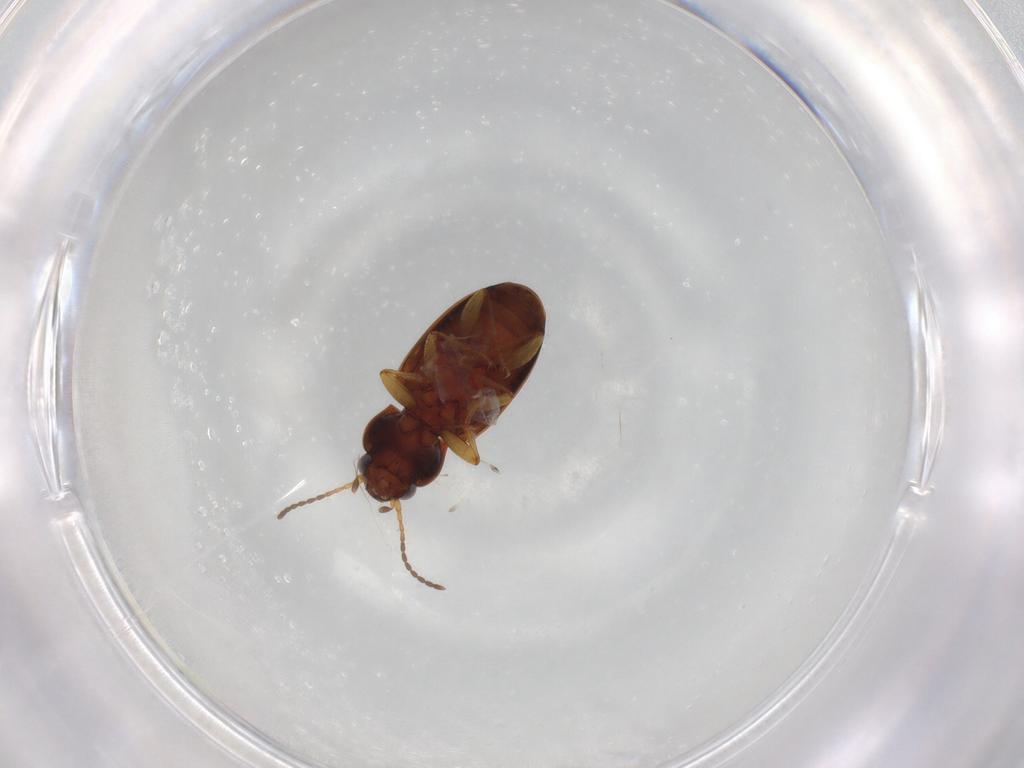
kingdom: Animalia
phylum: Arthropoda
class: Insecta
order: Coleoptera
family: Carabidae
